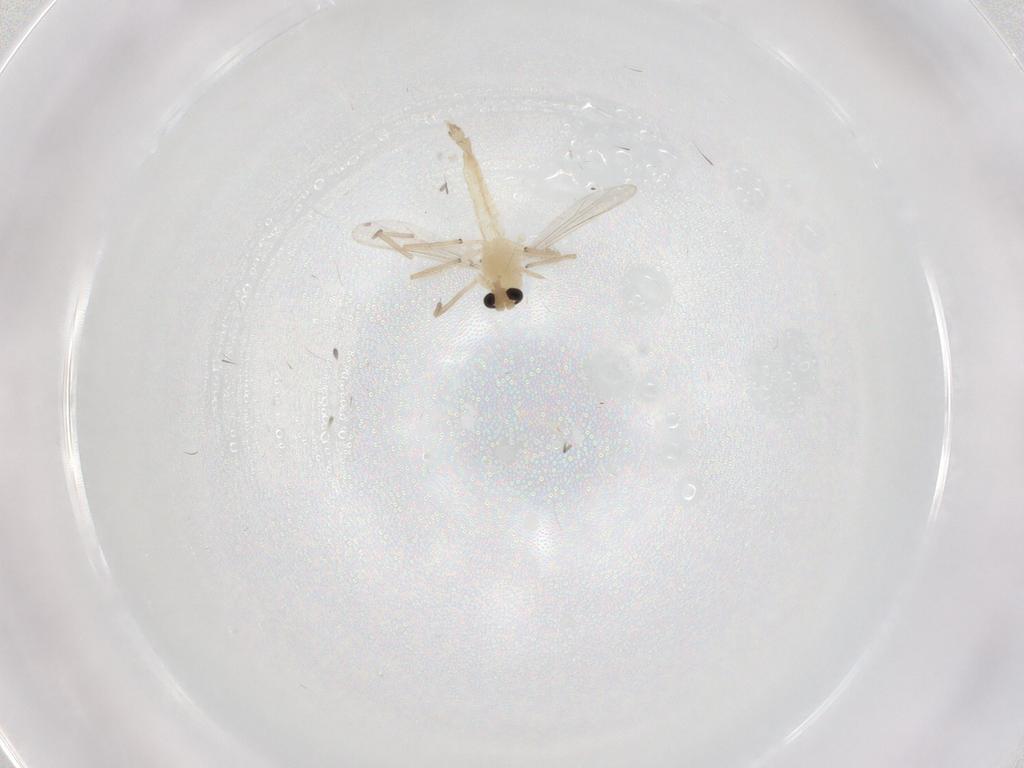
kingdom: Animalia
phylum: Arthropoda
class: Insecta
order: Diptera
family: Chironomidae
